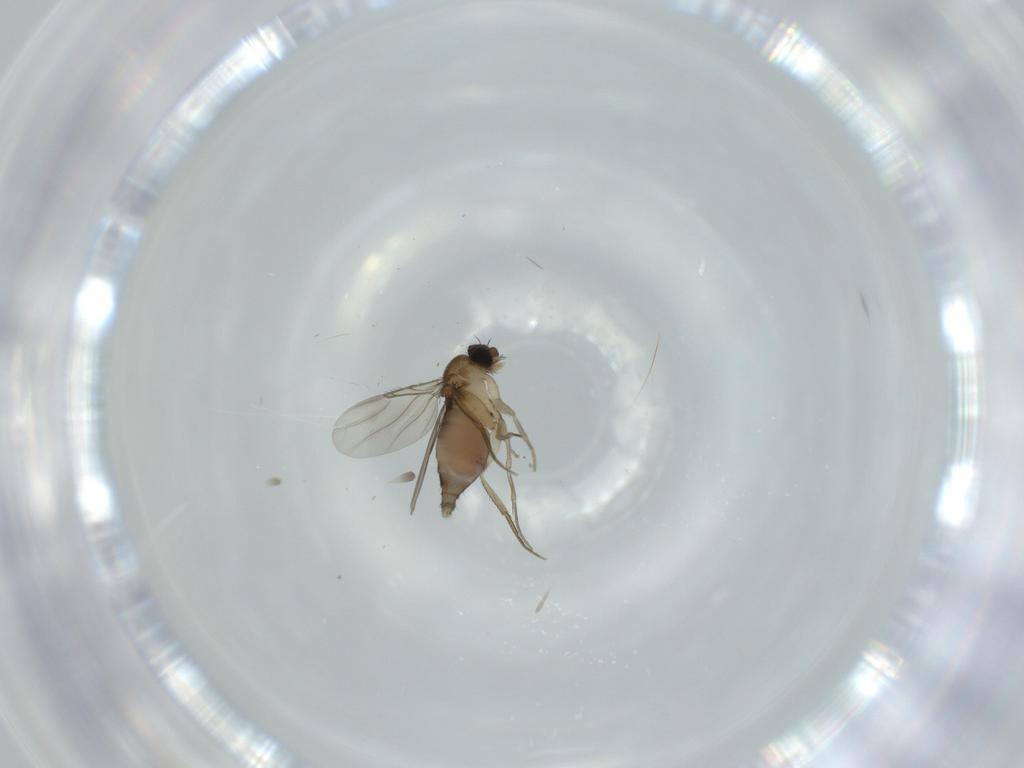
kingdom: Animalia
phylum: Arthropoda
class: Insecta
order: Diptera
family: Phoridae
